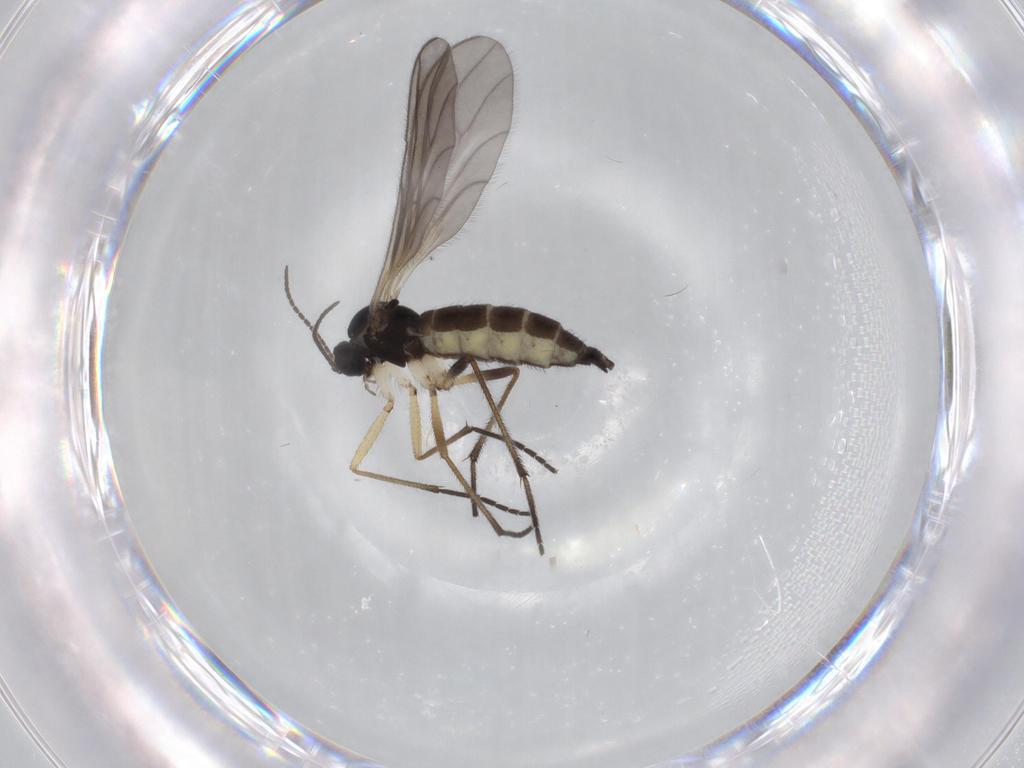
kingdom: Animalia
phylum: Arthropoda
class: Insecta
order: Diptera
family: Sciaridae
